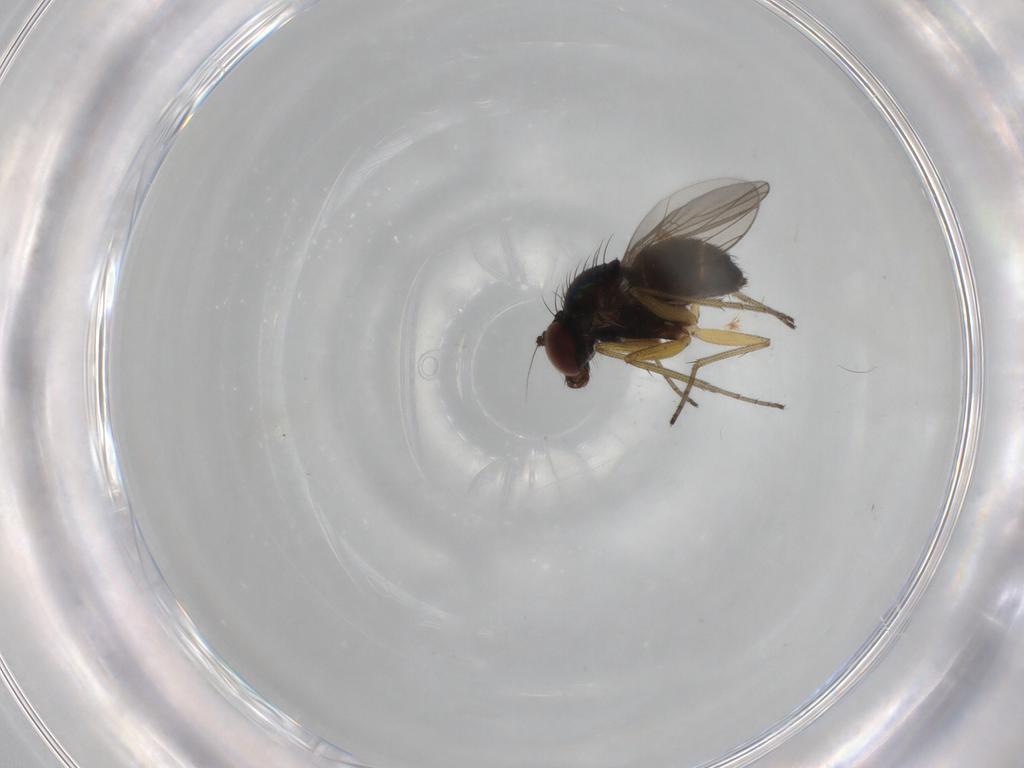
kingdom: Animalia
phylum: Arthropoda
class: Insecta
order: Diptera
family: Dolichopodidae
